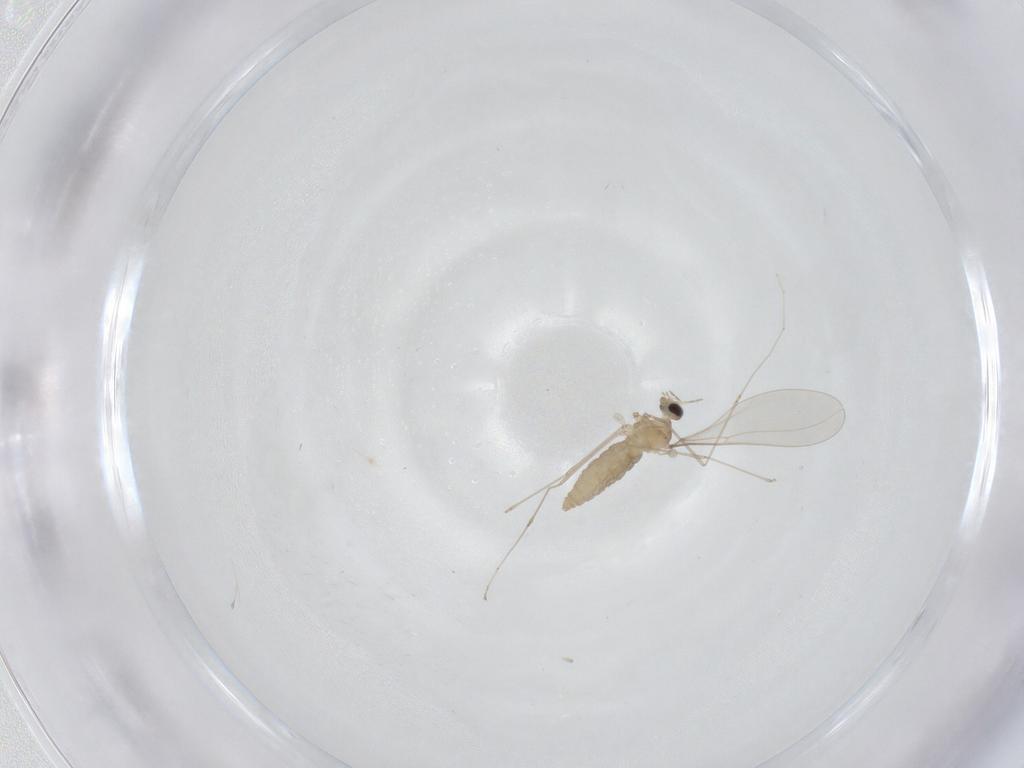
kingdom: Animalia
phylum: Arthropoda
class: Insecta
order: Diptera
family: Cecidomyiidae
